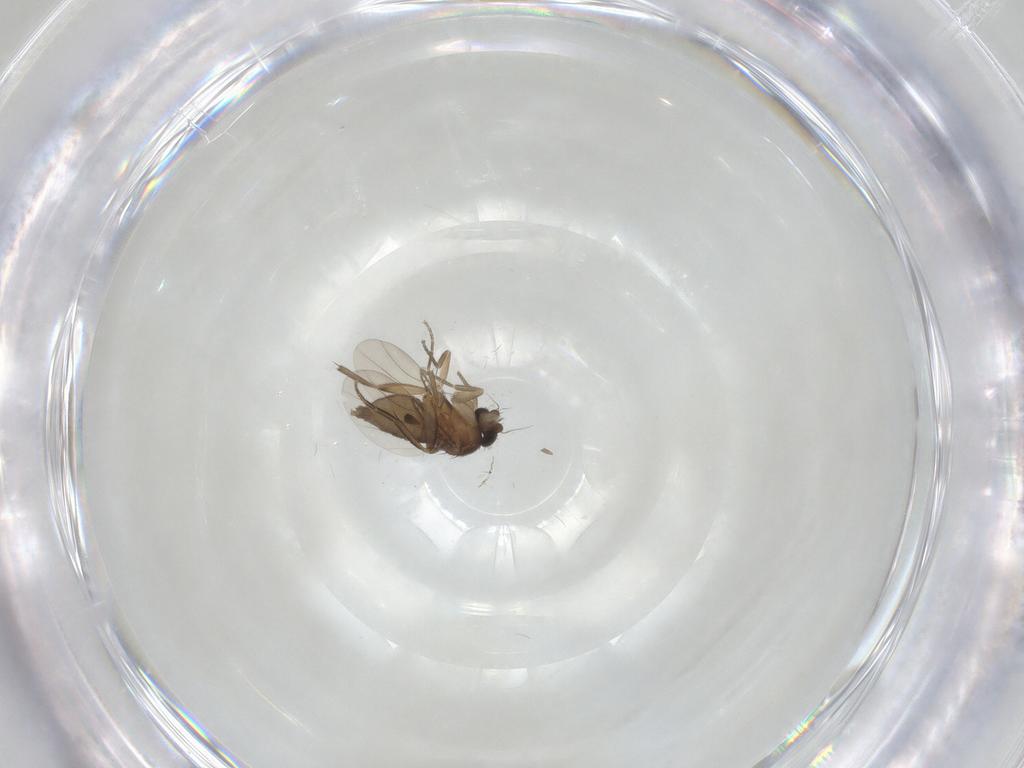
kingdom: Animalia
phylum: Arthropoda
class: Insecta
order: Diptera
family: Phoridae
